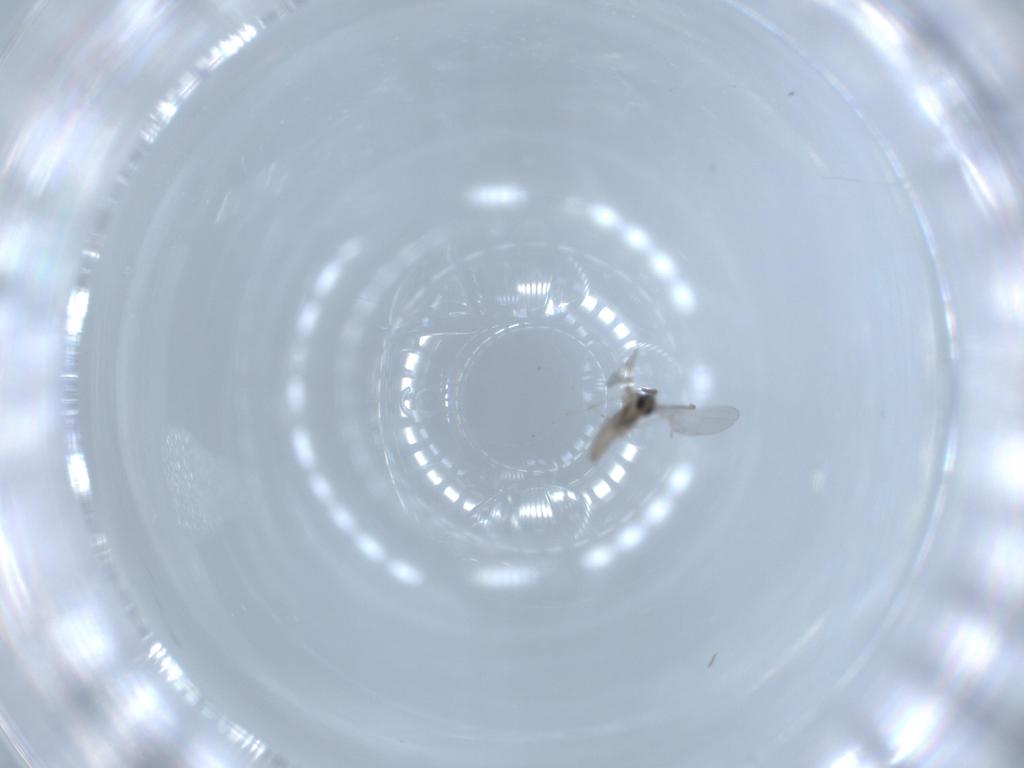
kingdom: Animalia
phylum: Arthropoda
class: Insecta
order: Diptera
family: Cecidomyiidae
